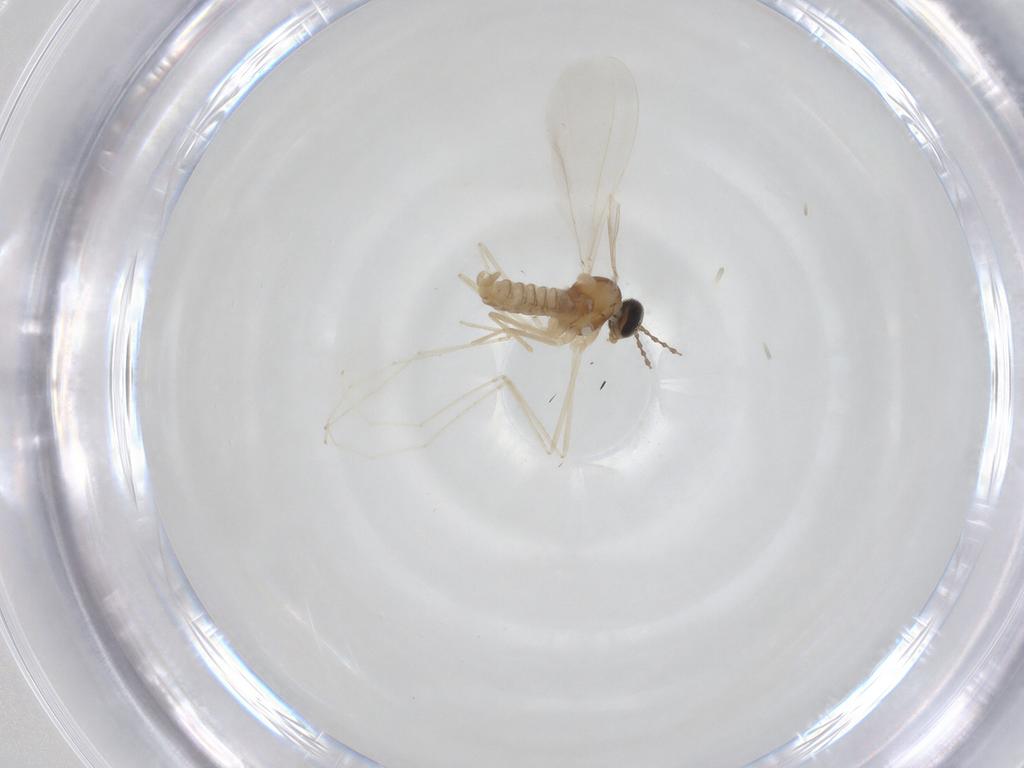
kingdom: Animalia
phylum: Arthropoda
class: Insecta
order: Diptera
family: Cecidomyiidae
